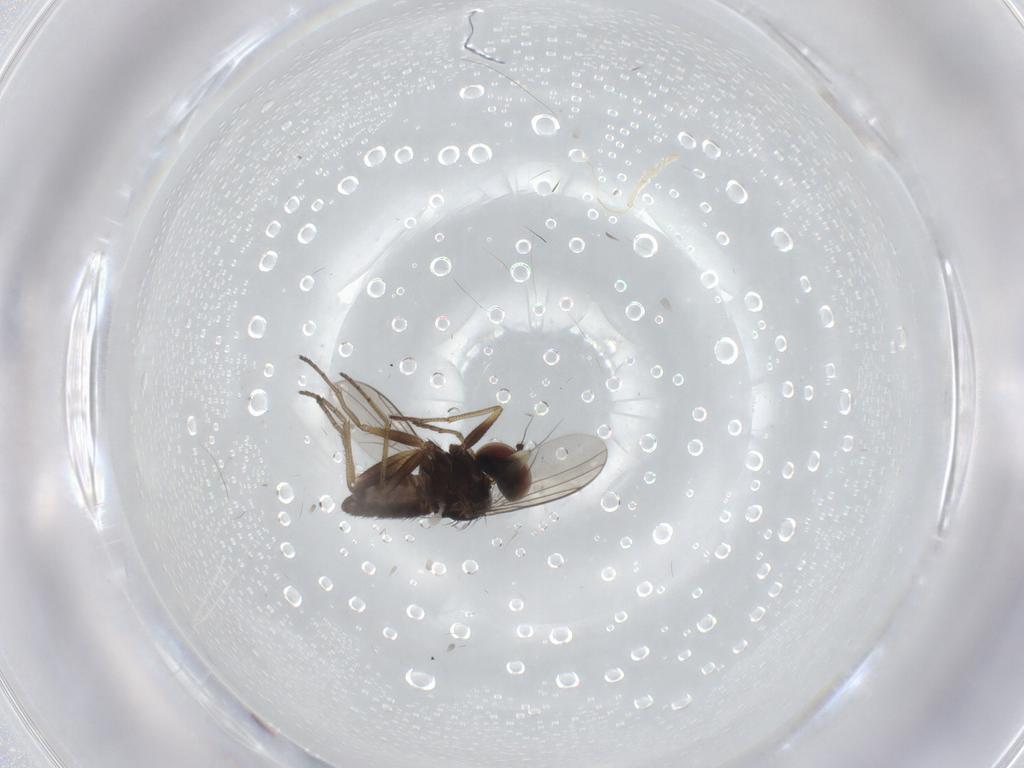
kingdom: Animalia
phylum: Arthropoda
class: Insecta
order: Diptera
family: Dolichopodidae
